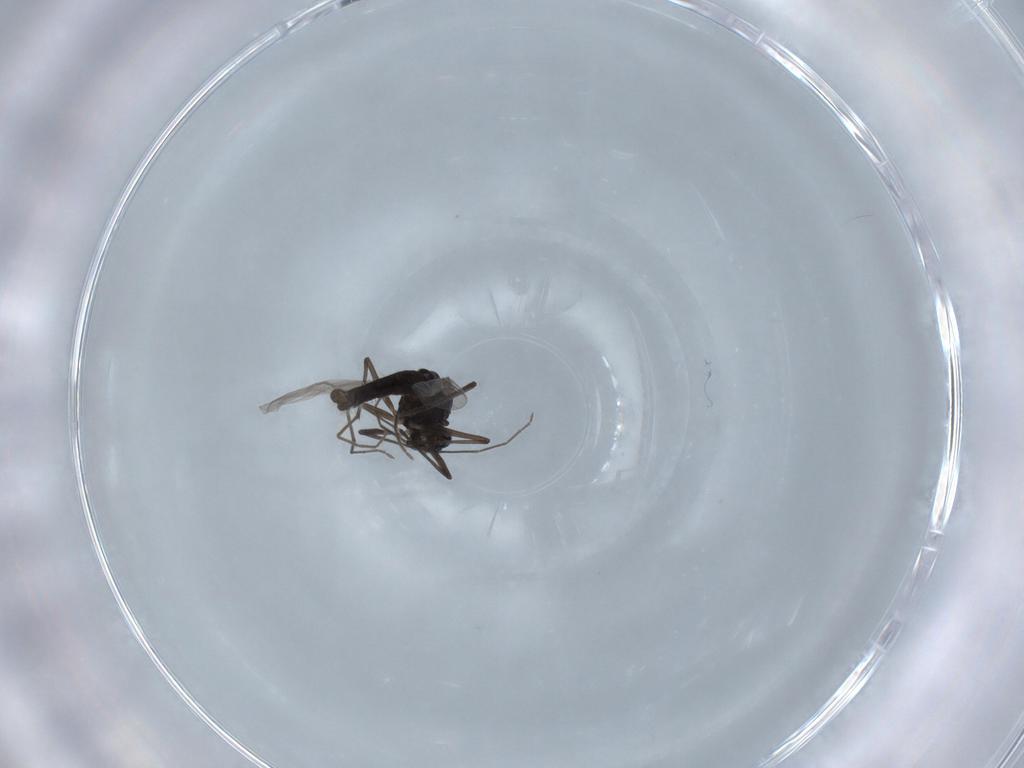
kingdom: Animalia
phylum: Arthropoda
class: Insecta
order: Diptera
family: Chironomidae
